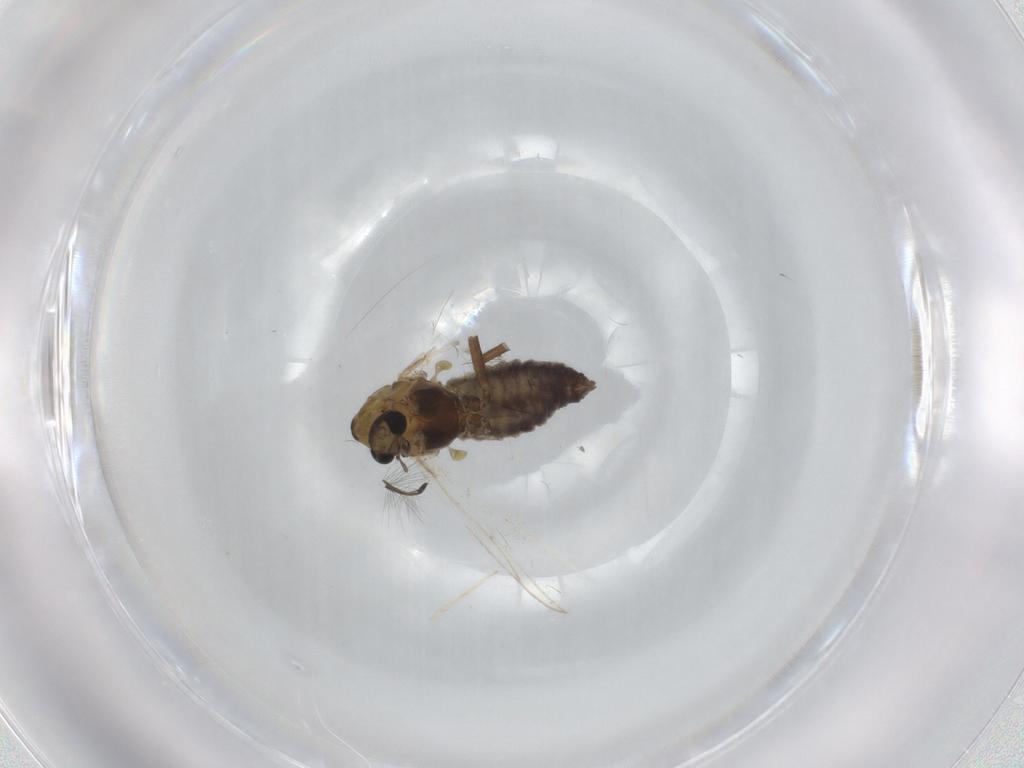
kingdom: Animalia
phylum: Arthropoda
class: Insecta
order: Diptera
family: Chironomidae
